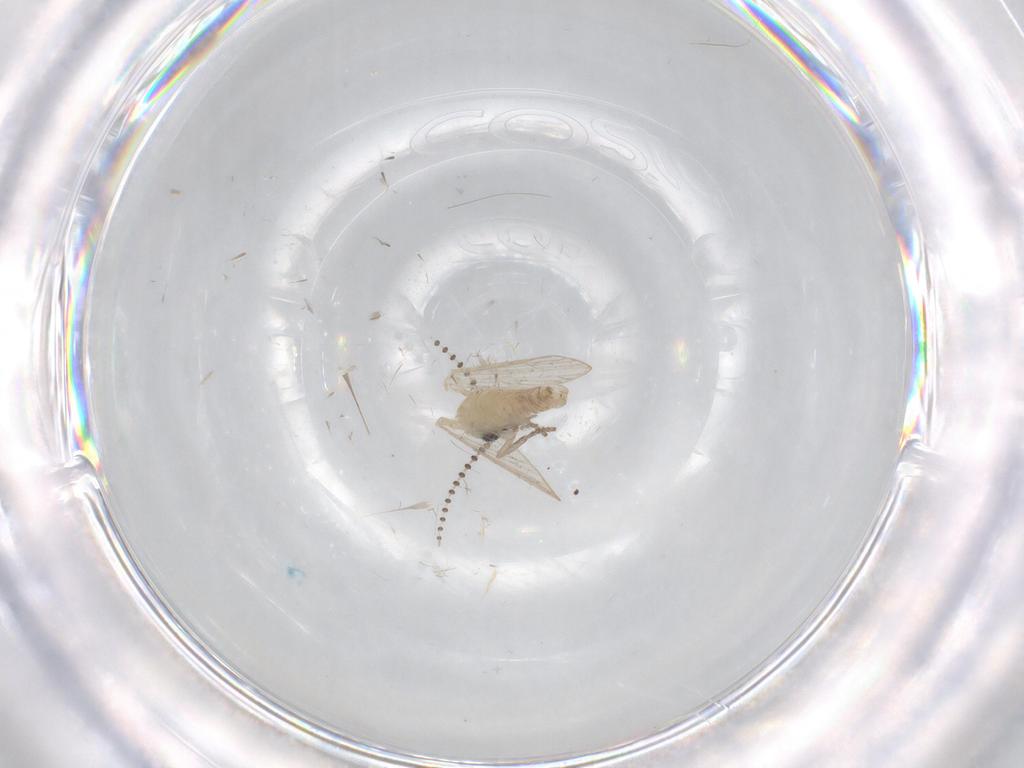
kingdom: Animalia
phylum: Arthropoda
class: Insecta
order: Diptera
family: Psychodidae
